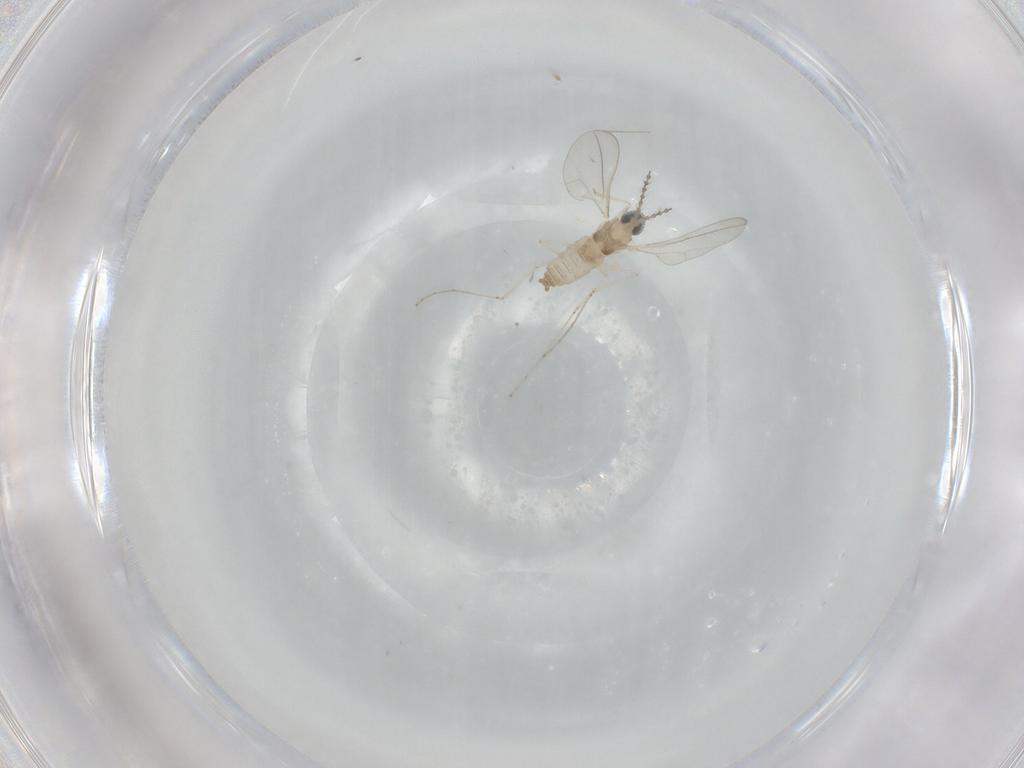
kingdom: Animalia
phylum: Arthropoda
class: Insecta
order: Diptera
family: Cecidomyiidae
